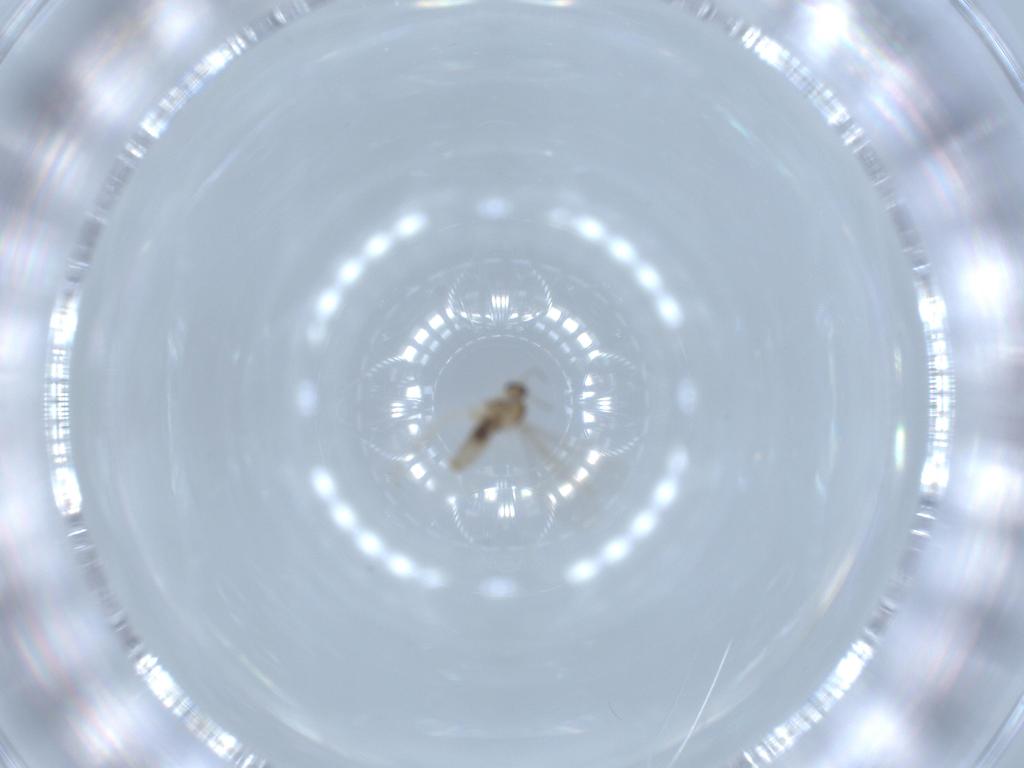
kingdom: Animalia
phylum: Arthropoda
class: Insecta
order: Diptera
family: Cecidomyiidae
